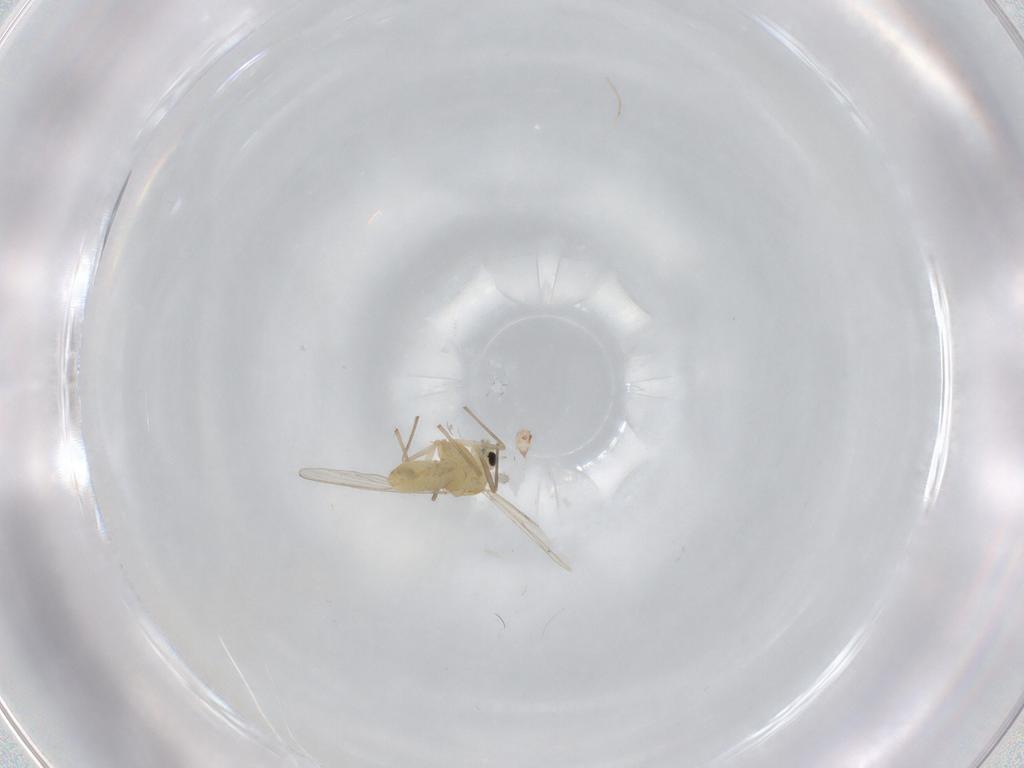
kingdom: Animalia
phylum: Arthropoda
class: Insecta
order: Diptera
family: Chironomidae
